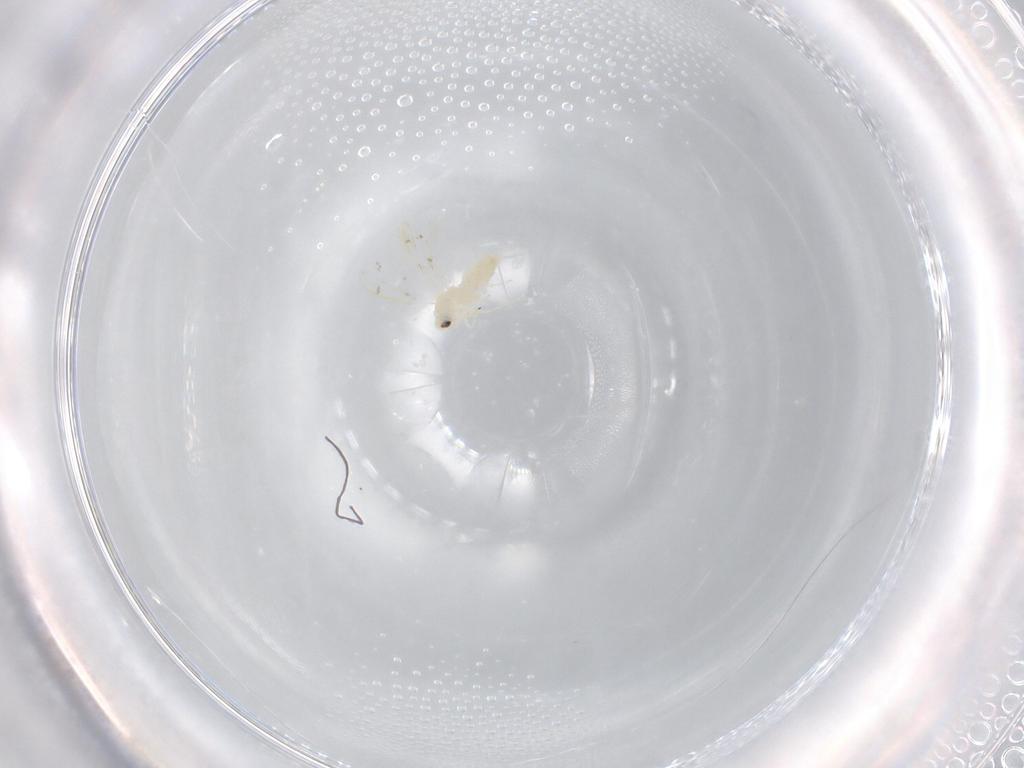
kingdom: Animalia
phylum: Arthropoda
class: Insecta
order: Hemiptera
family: Aleyrodidae
